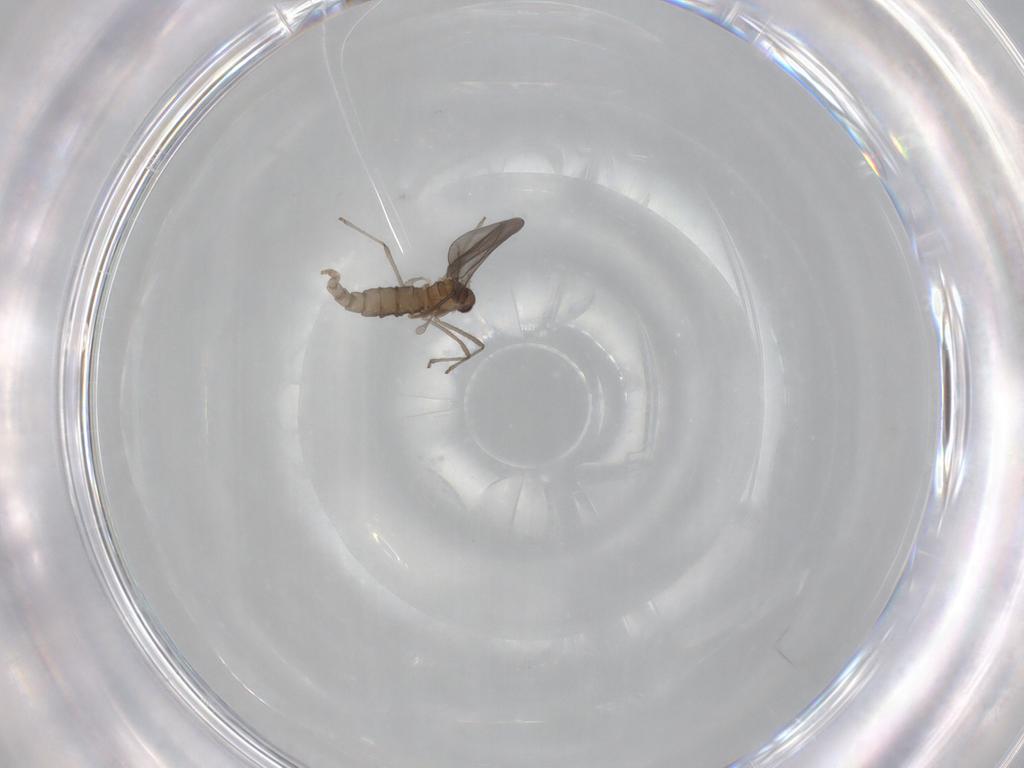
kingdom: Animalia
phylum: Arthropoda
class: Insecta
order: Diptera
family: Cecidomyiidae
